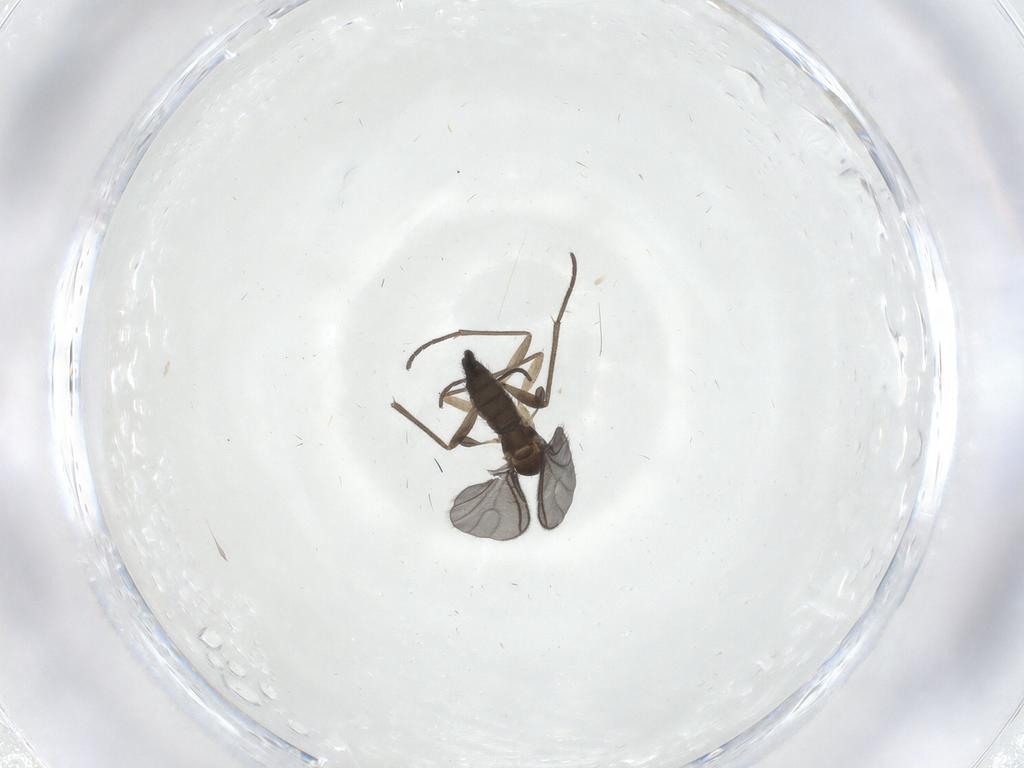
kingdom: Animalia
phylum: Arthropoda
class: Insecta
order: Diptera
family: Sciaridae
